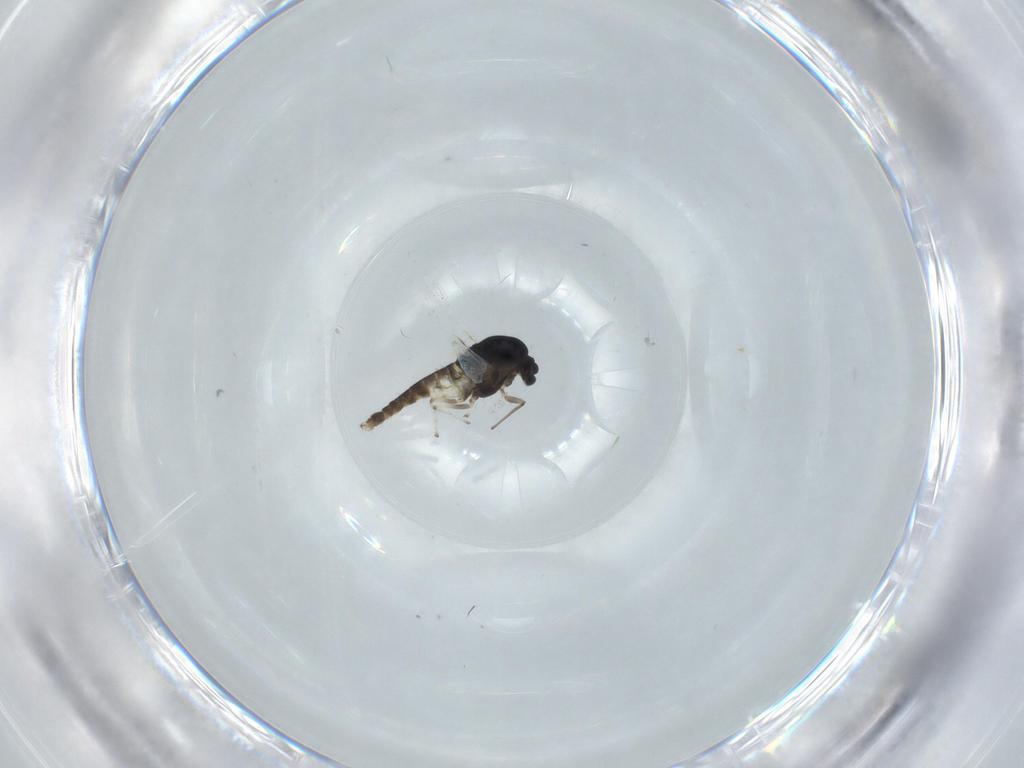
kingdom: Animalia
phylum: Arthropoda
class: Insecta
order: Diptera
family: Chironomidae
